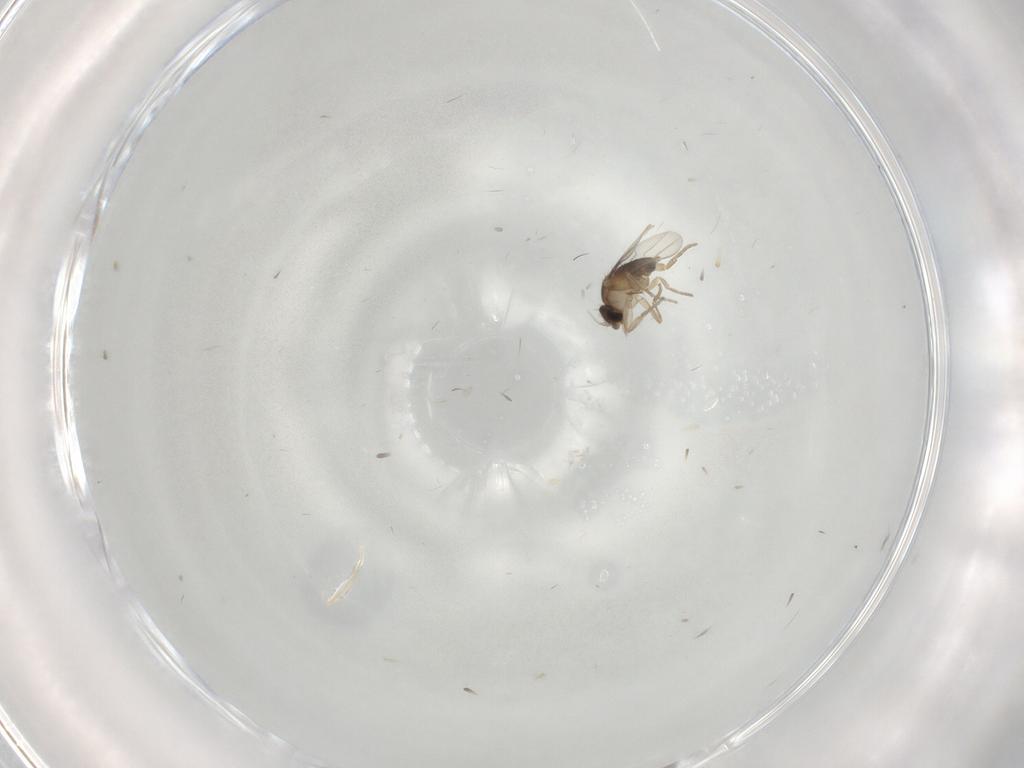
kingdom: Animalia
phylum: Arthropoda
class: Insecta
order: Diptera
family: Phoridae
